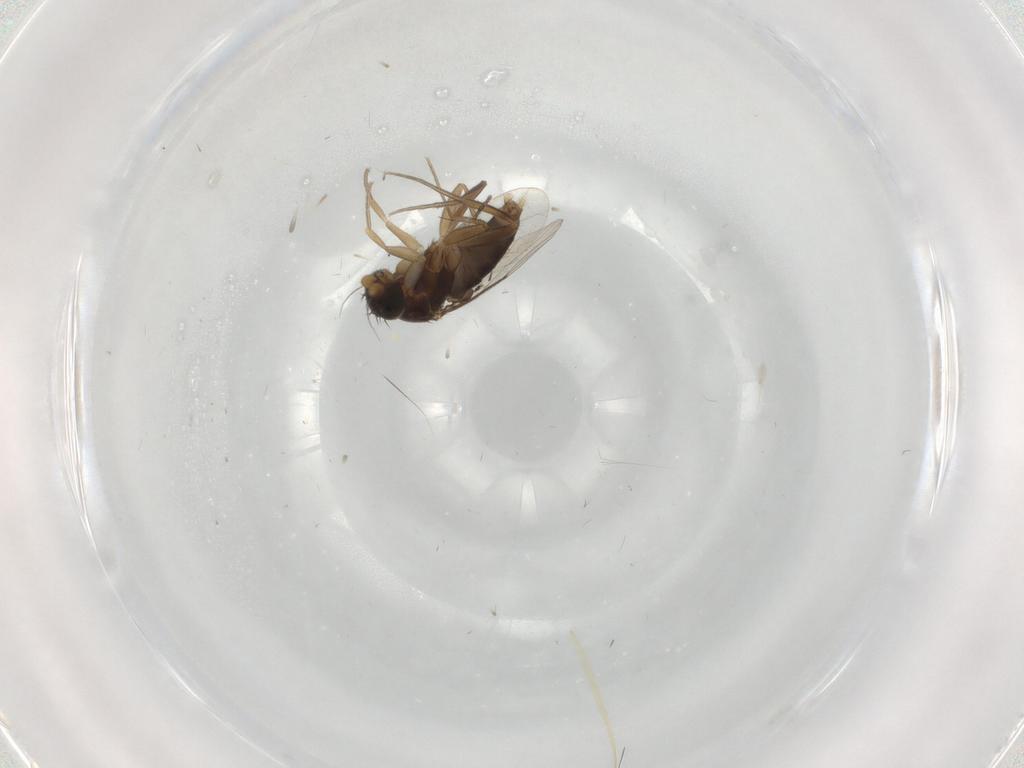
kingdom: Animalia
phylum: Arthropoda
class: Insecta
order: Diptera
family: Phoridae
